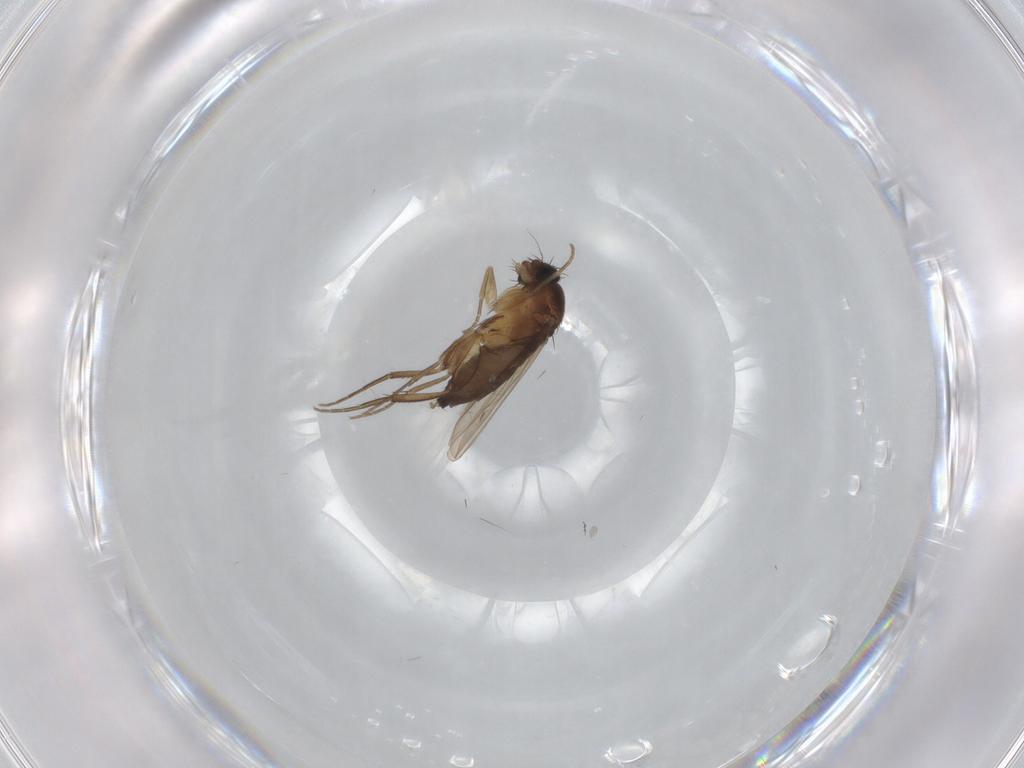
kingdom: Animalia
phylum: Arthropoda
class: Insecta
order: Diptera
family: Phoridae
